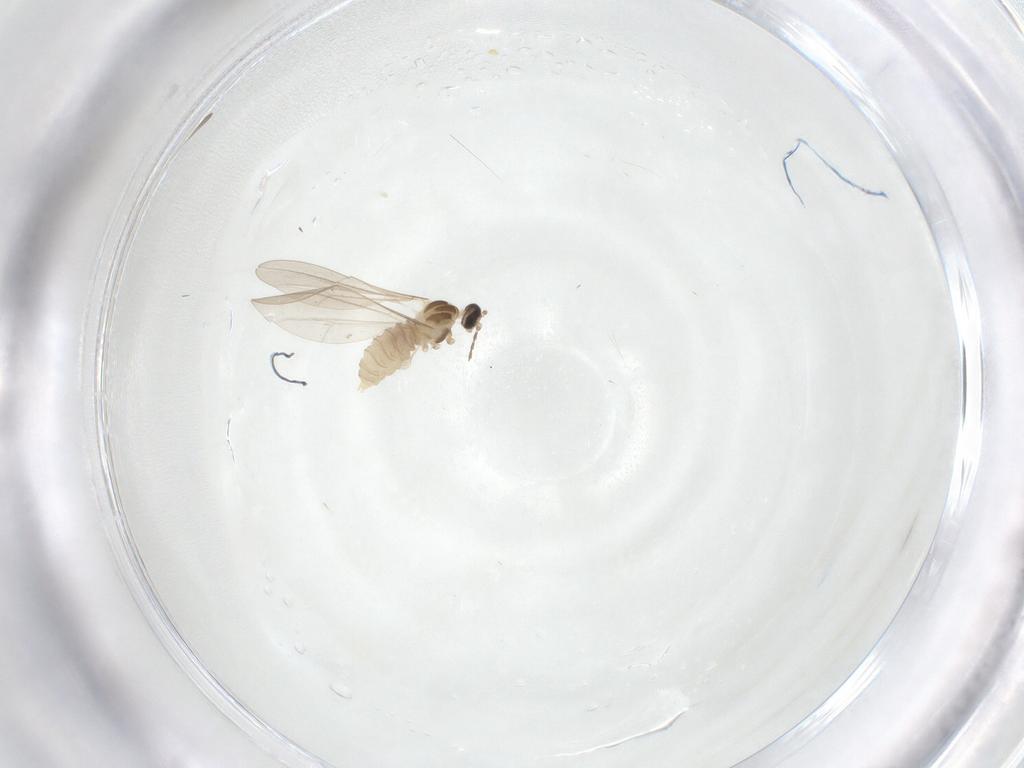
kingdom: Animalia
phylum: Arthropoda
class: Insecta
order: Diptera
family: Cecidomyiidae
